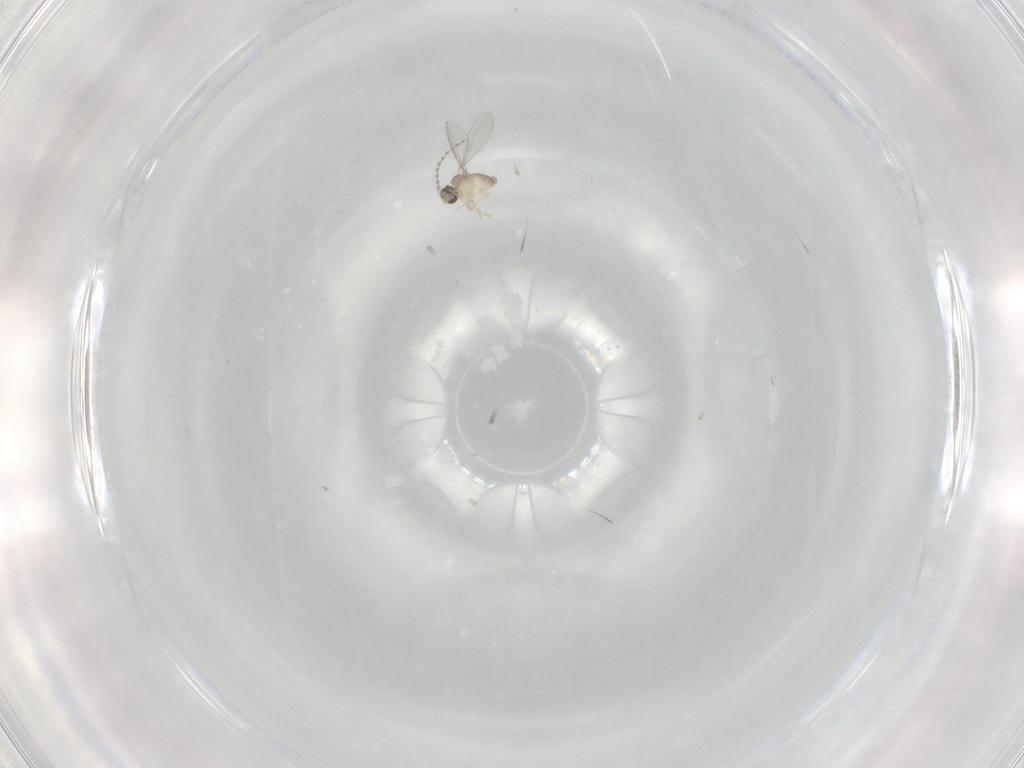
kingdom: Animalia
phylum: Arthropoda
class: Insecta
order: Diptera
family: Cecidomyiidae
